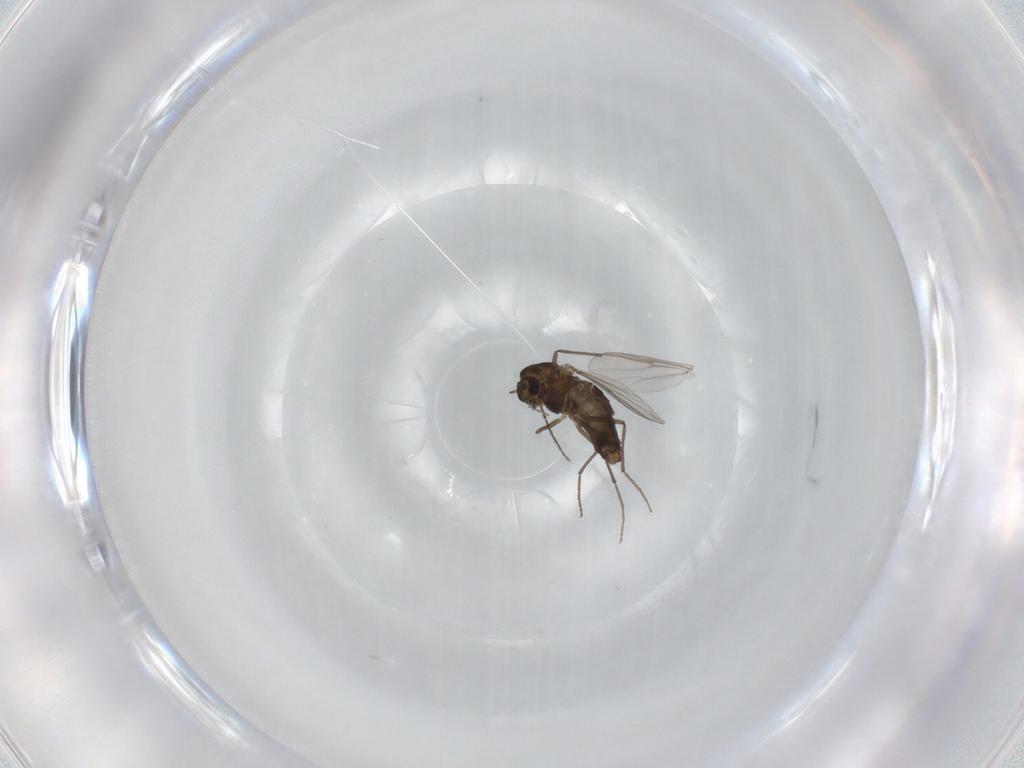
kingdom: Animalia
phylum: Arthropoda
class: Insecta
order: Diptera
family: Chironomidae
